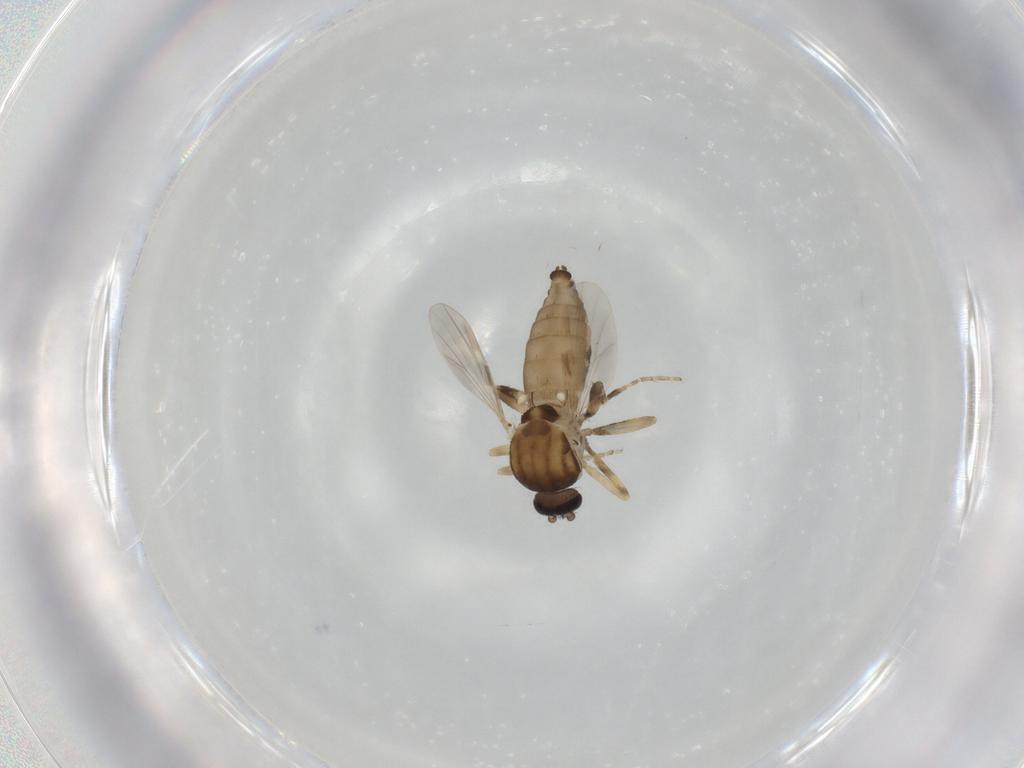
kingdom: Animalia
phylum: Arthropoda
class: Insecta
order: Diptera
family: Ceratopogonidae
